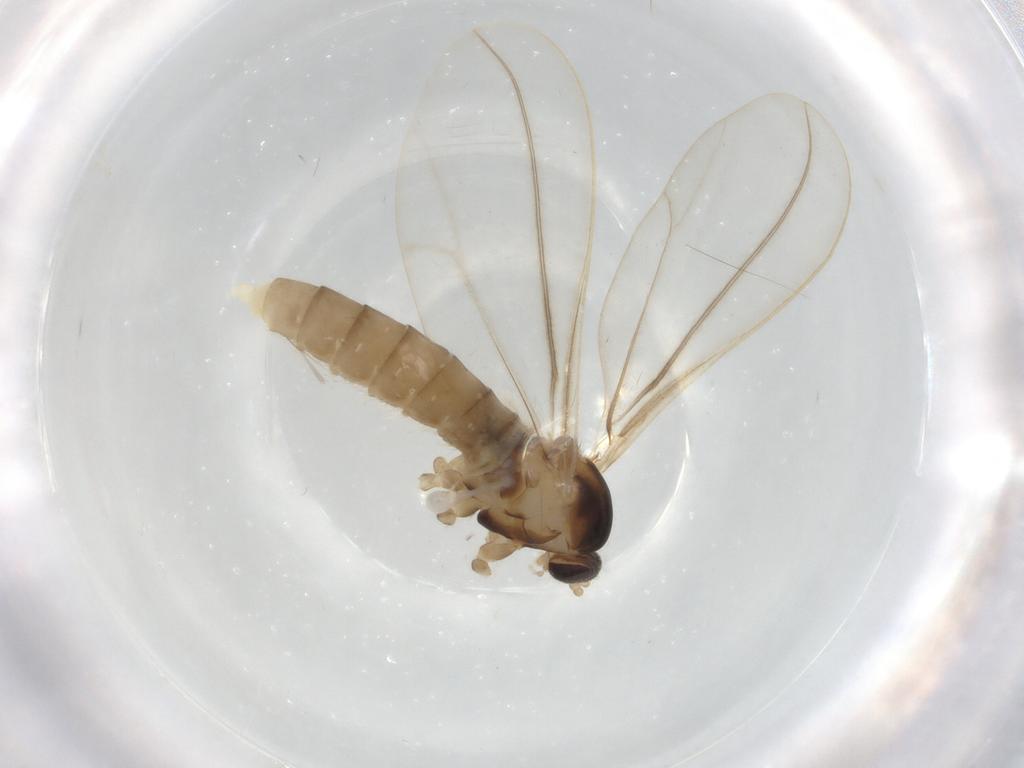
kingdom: Animalia
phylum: Arthropoda
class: Insecta
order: Diptera
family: Cecidomyiidae
